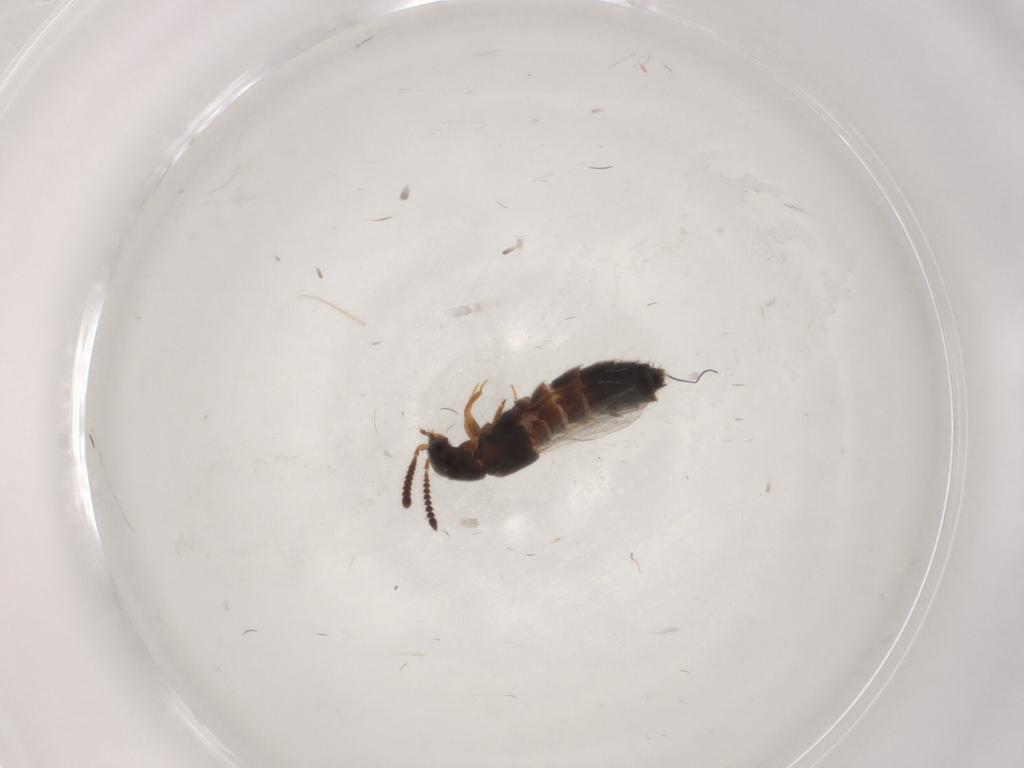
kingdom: Animalia
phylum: Arthropoda
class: Insecta
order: Coleoptera
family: Staphylinidae
